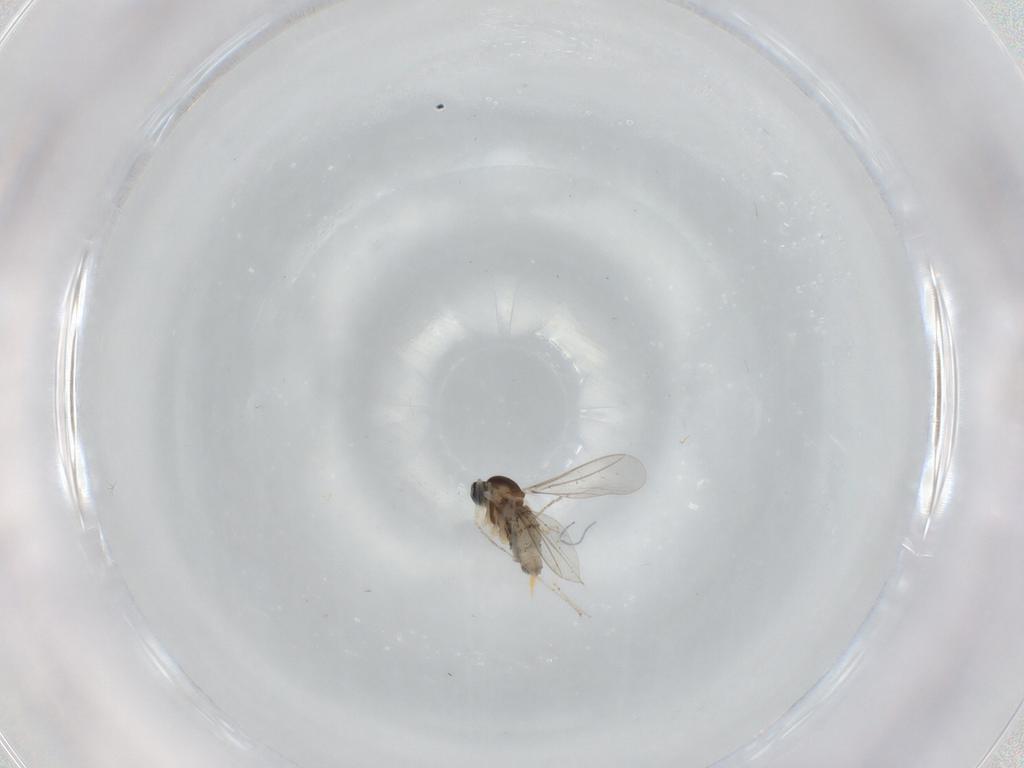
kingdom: Animalia
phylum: Arthropoda
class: Insecta
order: Diptera
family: Cecidomyiidae
